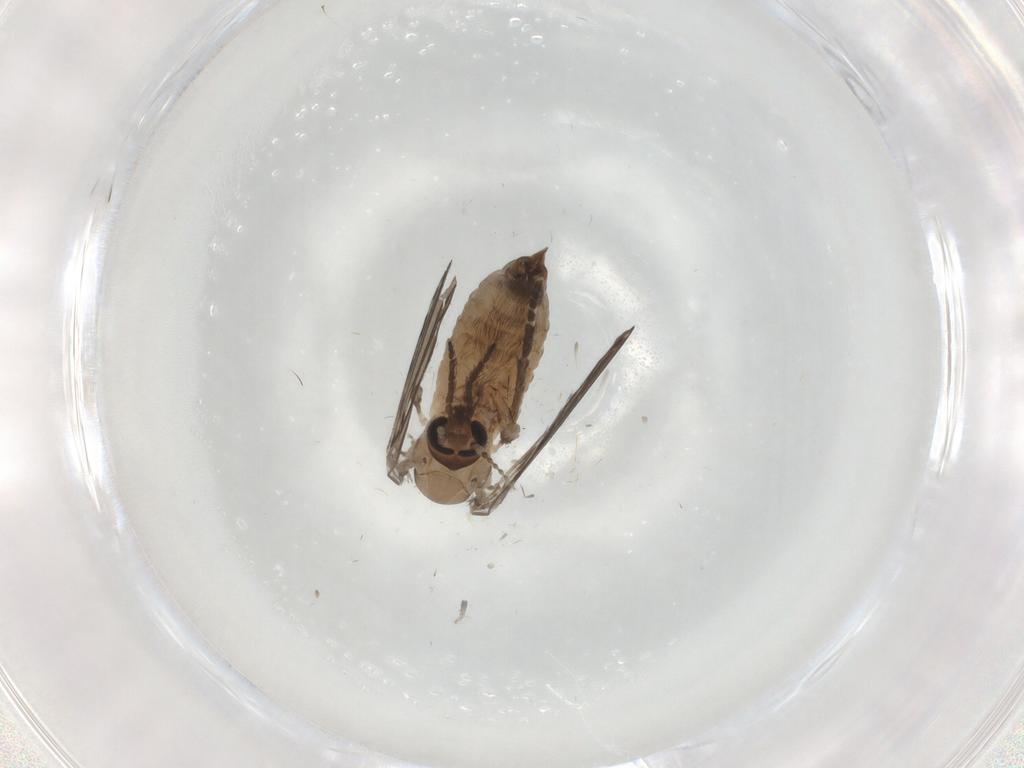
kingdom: Animalia
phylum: Arthropoda
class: Insecta
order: Diptera
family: Psychodidae
